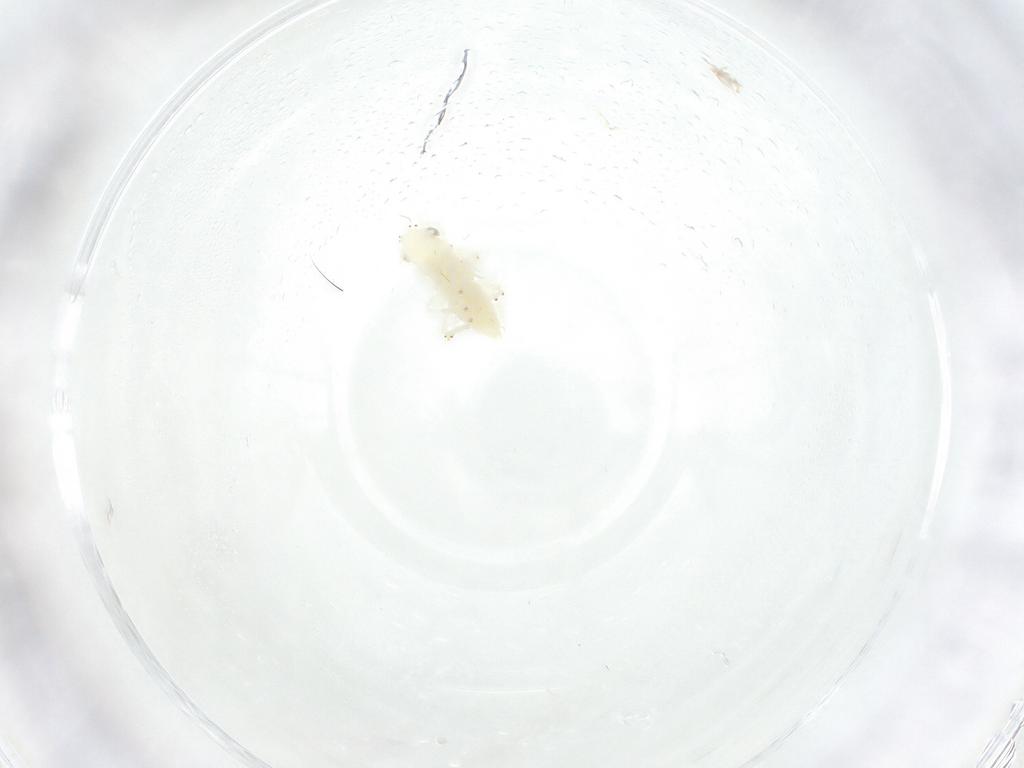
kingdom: Animalia
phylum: Arthropoda
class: Insecta
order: Hemiptera
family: Cicadellidae
